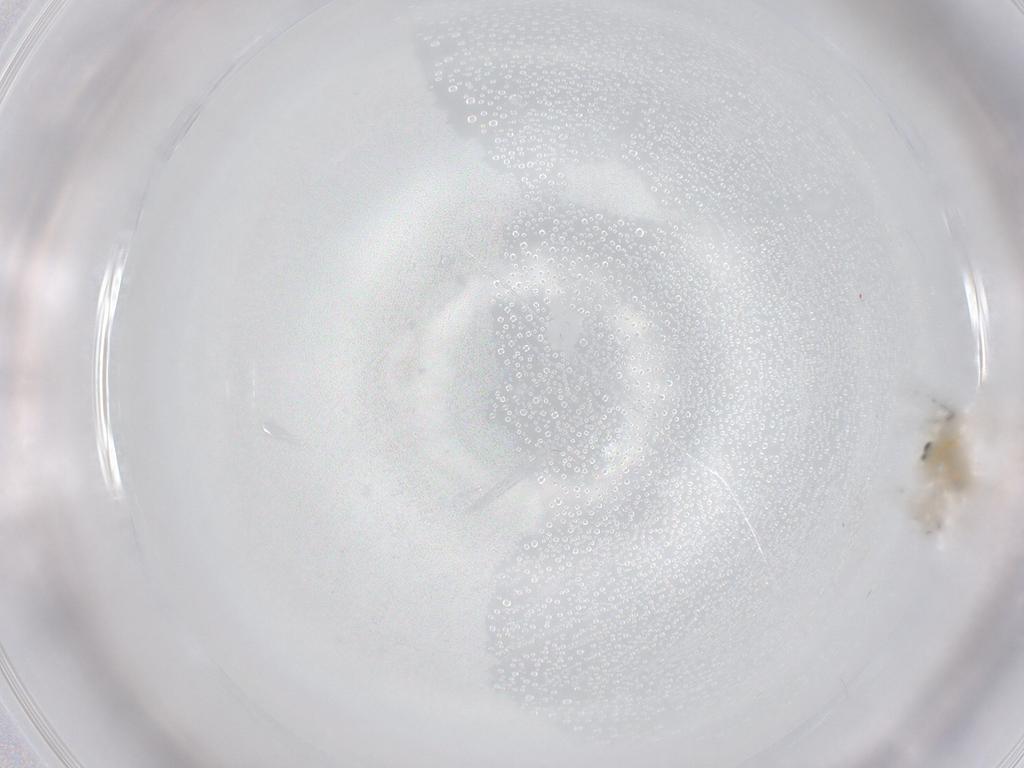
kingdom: Animalia
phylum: Arthropoda
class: Insecta
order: Diptera
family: Chironomidae
